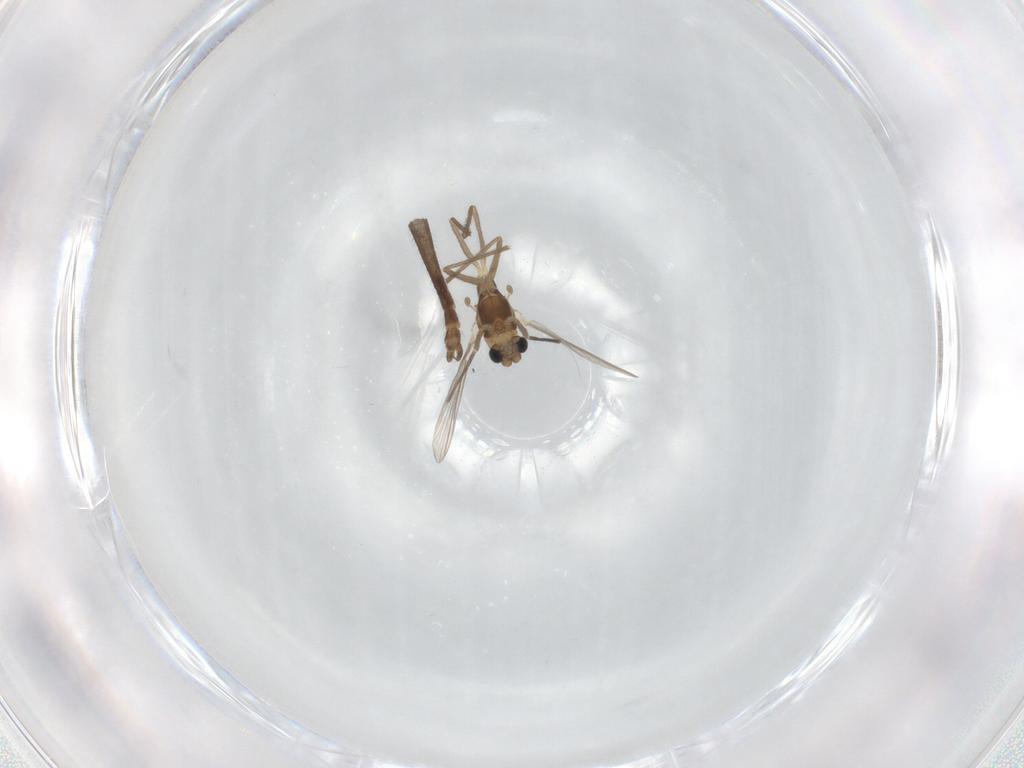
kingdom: Animalia
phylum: Arthropoda
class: Insecta
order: Diptera
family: Chironomidae
